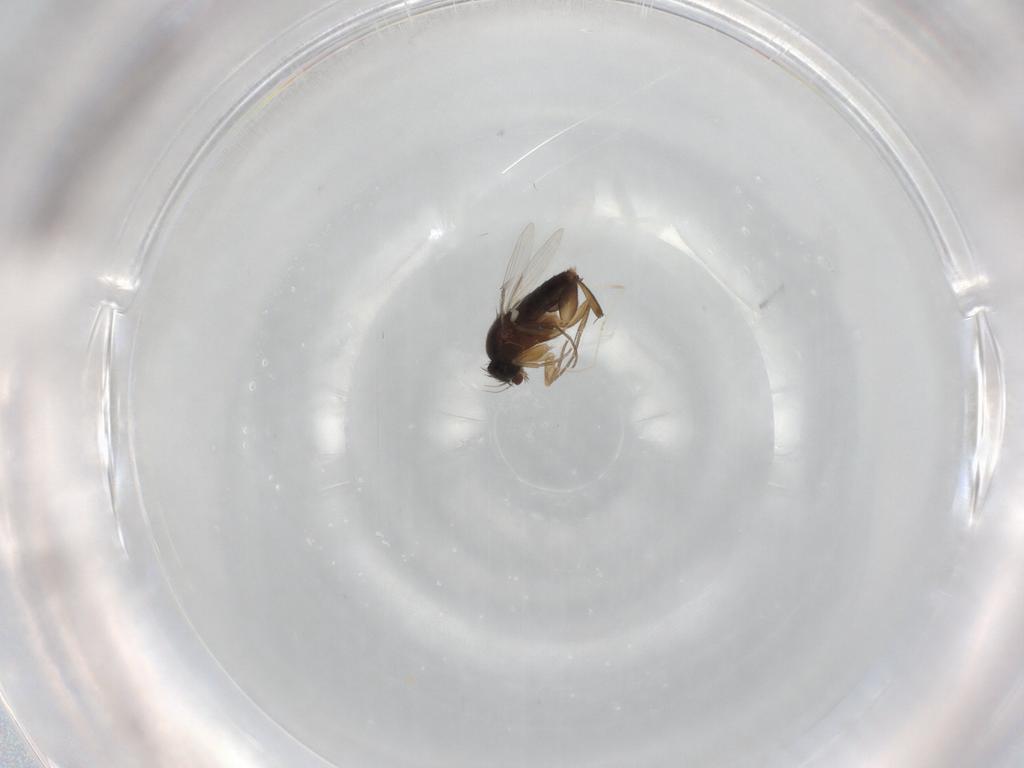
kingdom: Animalia
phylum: Arthropoda
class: Insecta
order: Diptera
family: Phoridae
